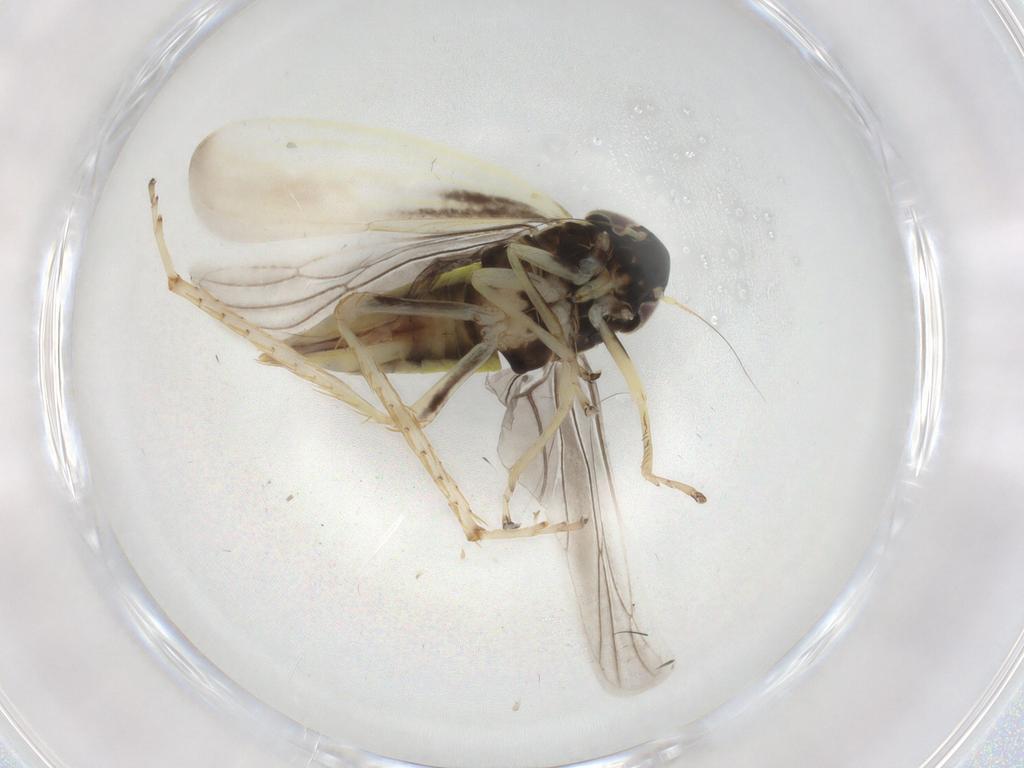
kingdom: Animalia
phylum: Arthropoda
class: Insecta
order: Hemiptera
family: Cicadellidae
